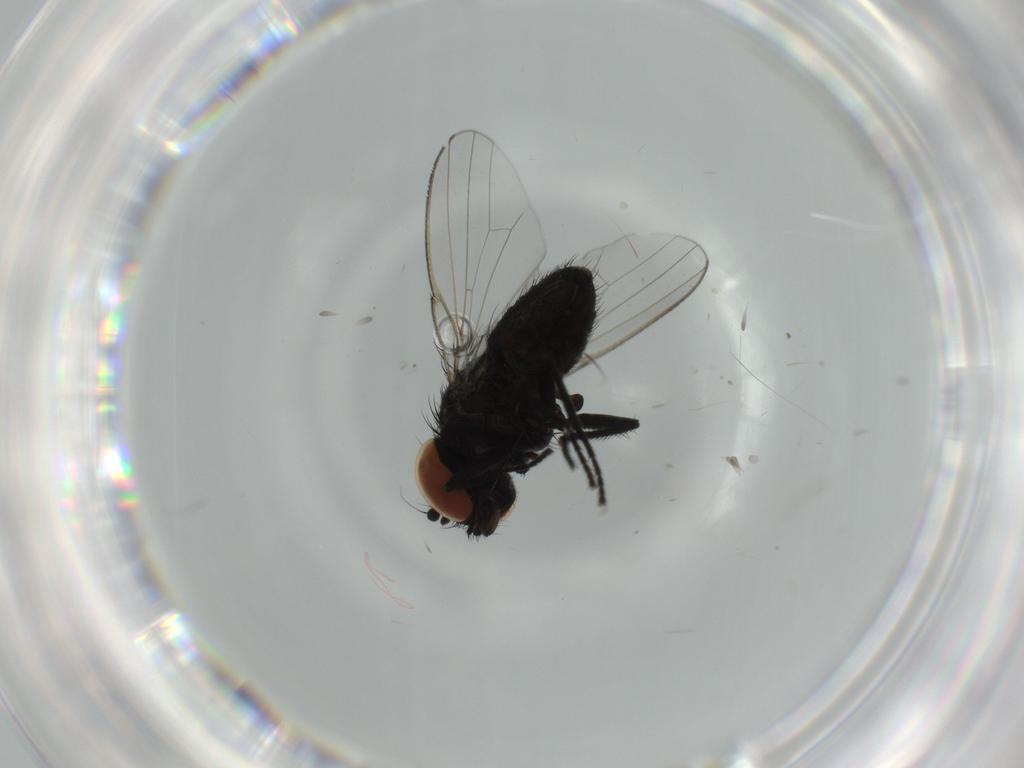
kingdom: Animalia
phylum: Arthropoda
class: Insecta
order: Diptera
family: Milichiidae
